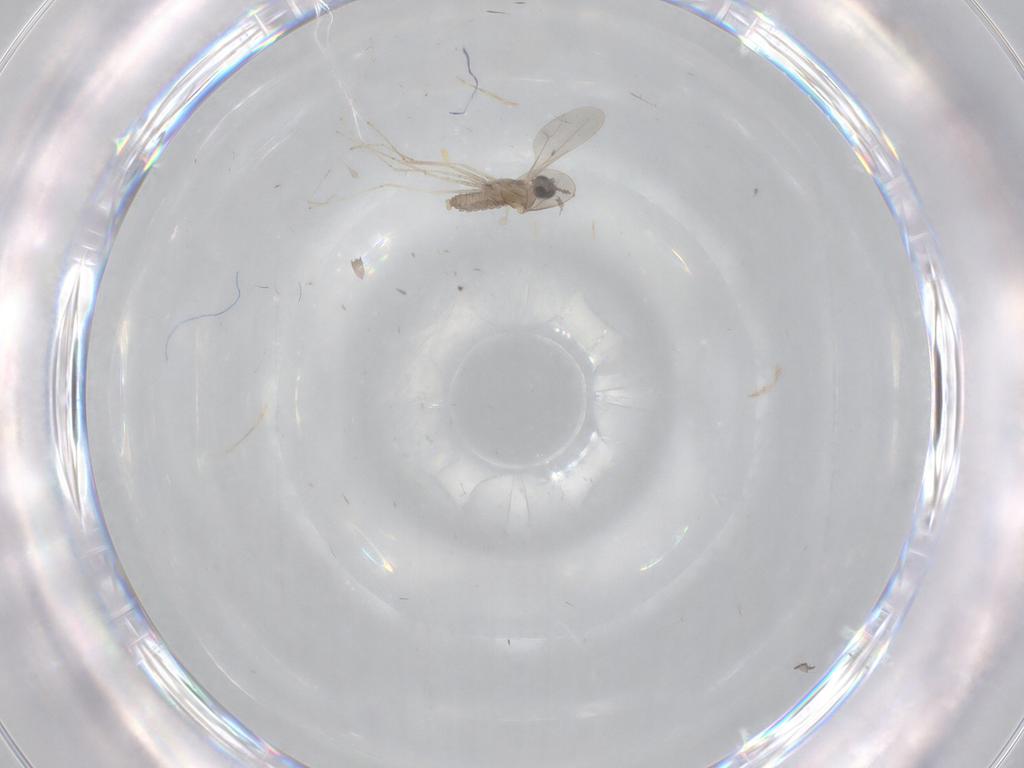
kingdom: Animalia
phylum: Arthropoda
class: Insecta
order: Diptera
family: Cecidomyiidae
